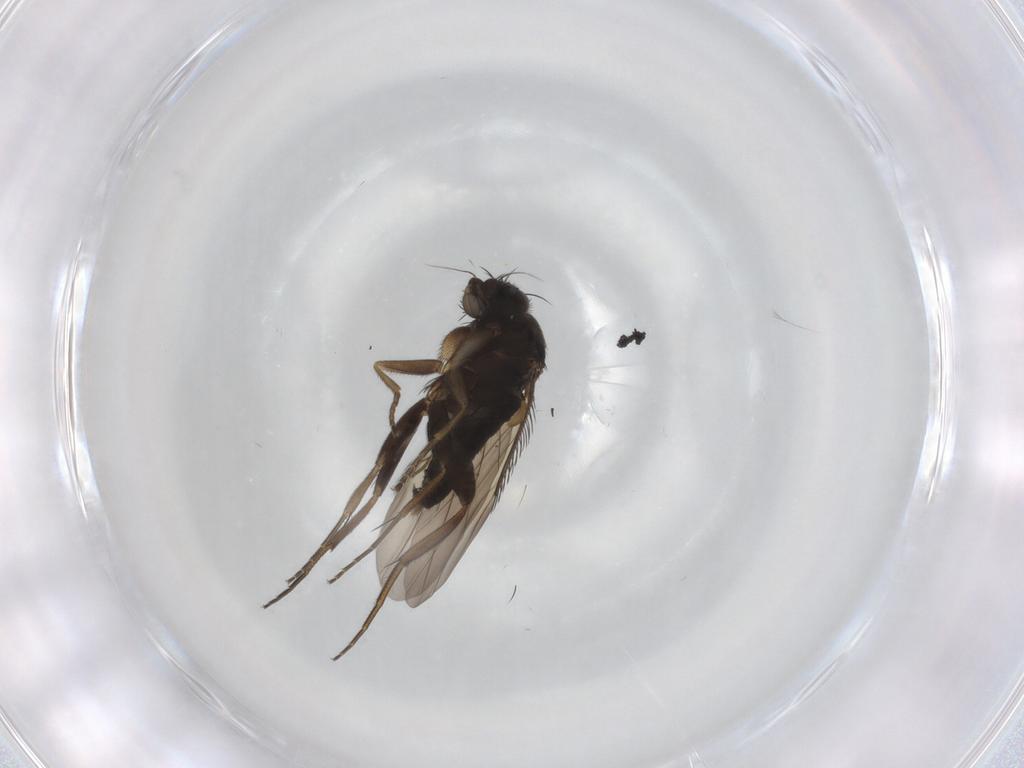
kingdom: Animalia
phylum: Arthropoda
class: Insecta
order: Diptera
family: Phoridae
